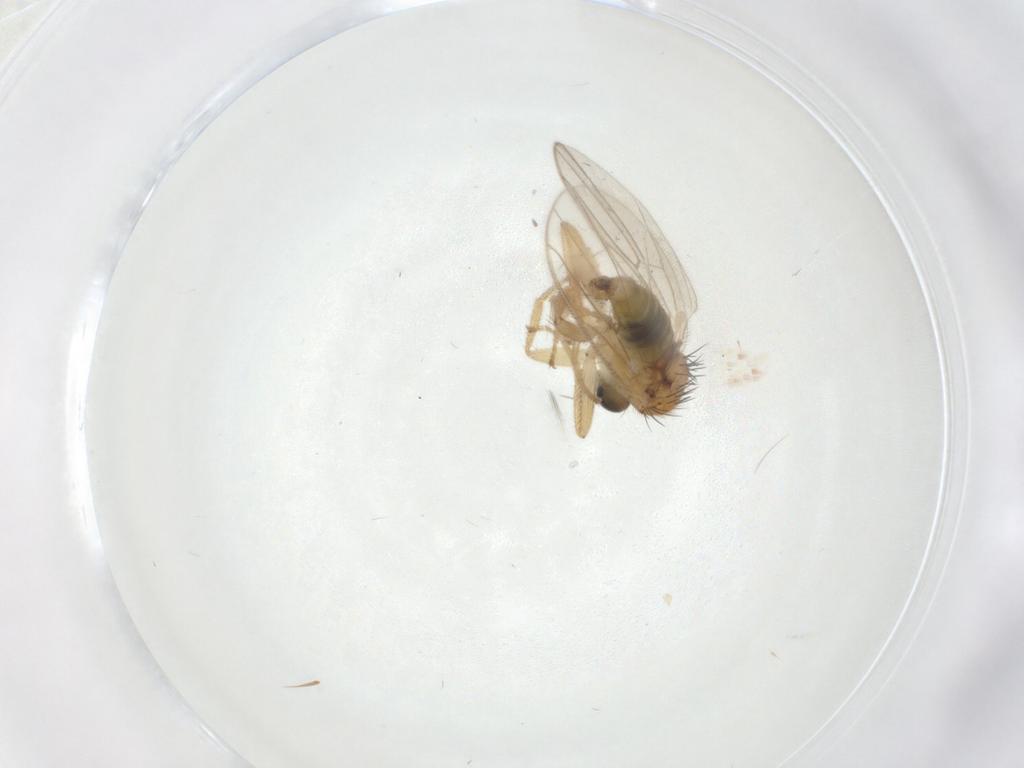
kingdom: Animalia
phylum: Arthropoda
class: Insecta
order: Diptera
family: Hybotidae
